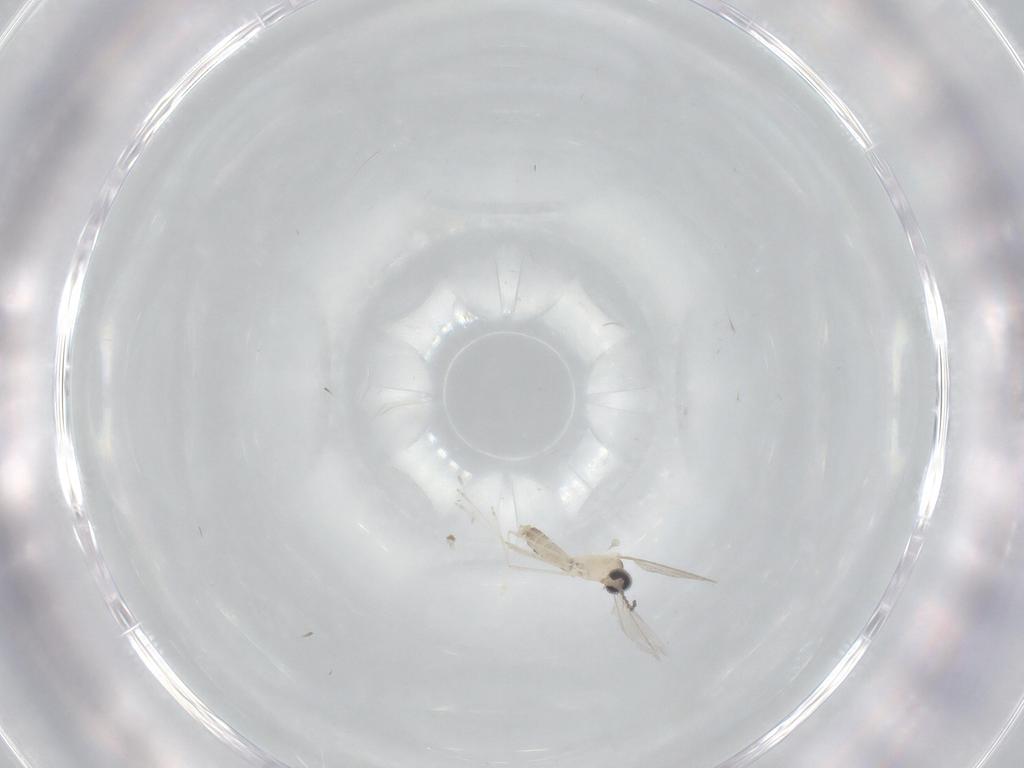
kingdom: Animalia
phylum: Arthropoda
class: Insecta
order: Diptera
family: Cecidomyiidae
